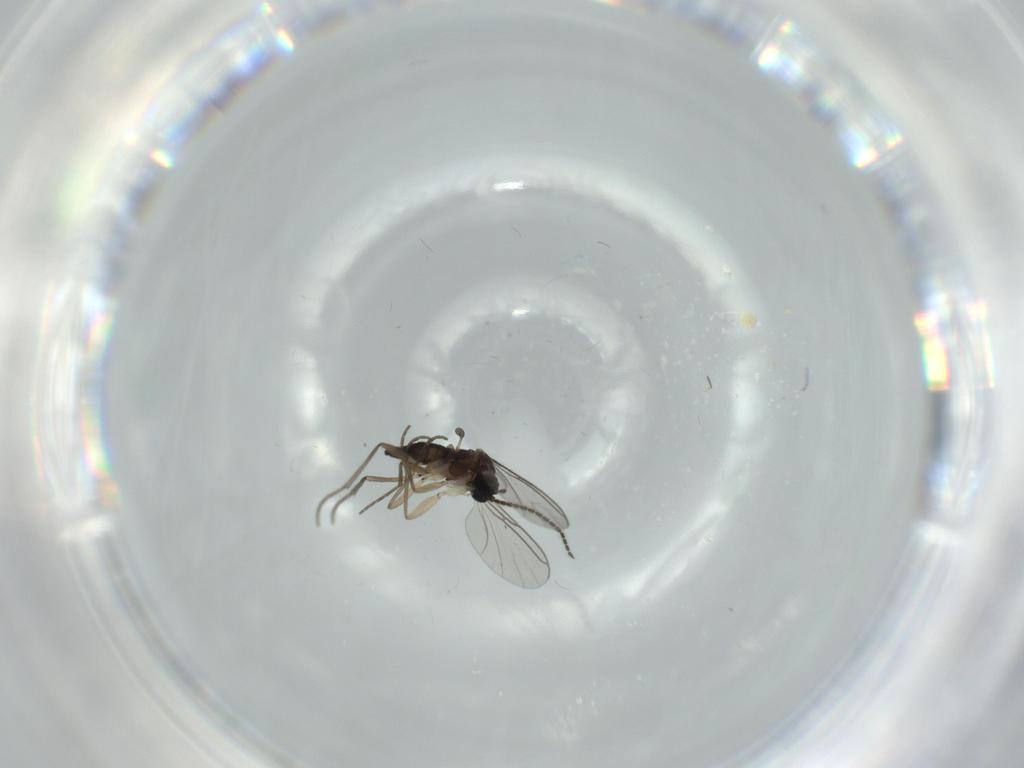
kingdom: Animalia
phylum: Arthropoda
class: Insecta
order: Diptera
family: Sciaridae
